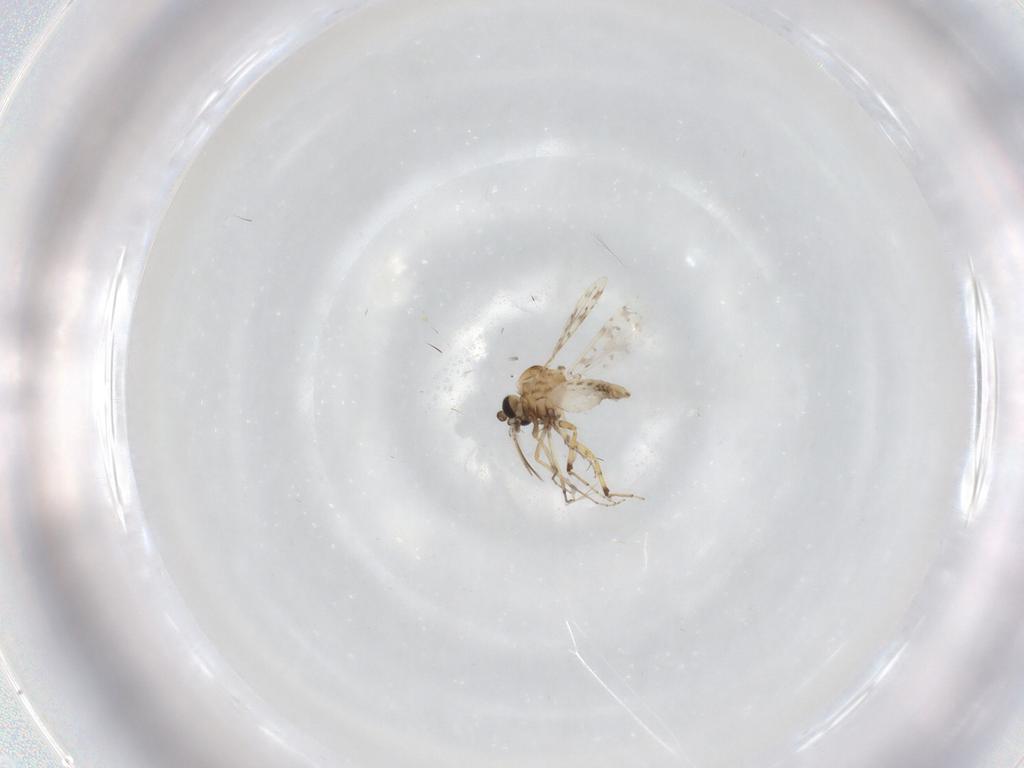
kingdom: Animalia
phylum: Arthropoda
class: Insecta
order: Diptera
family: Ceratopogonidae
